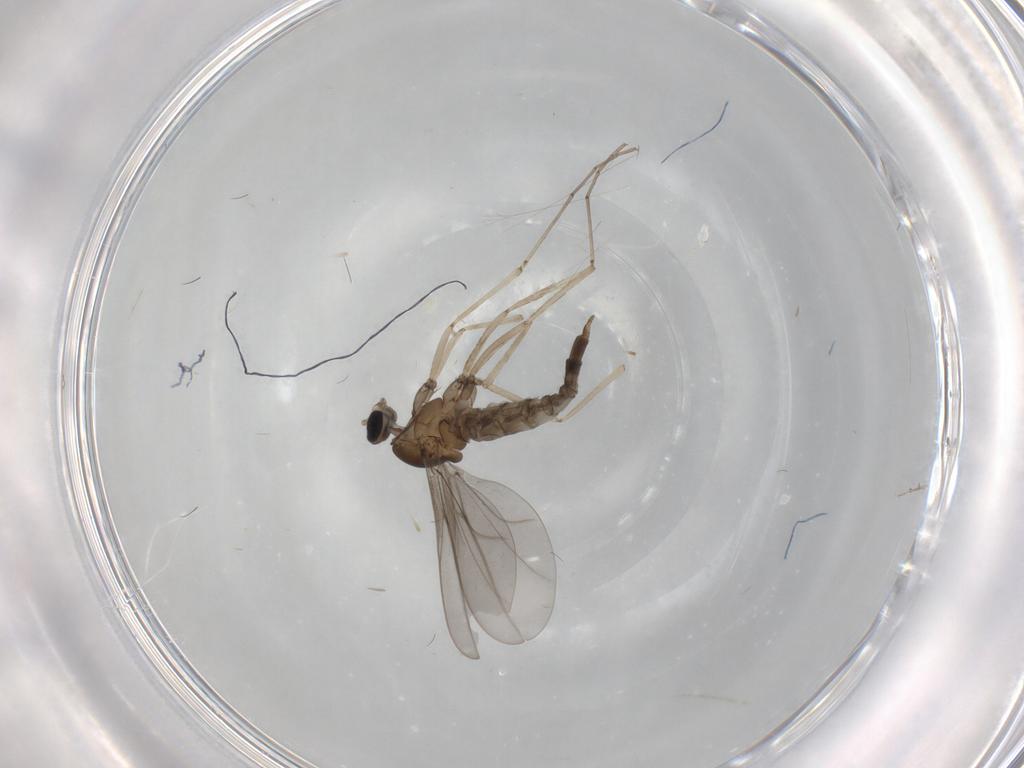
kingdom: Animalia
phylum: Arthropoda
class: Insecta
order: Diptera
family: Cecidomyiidae
